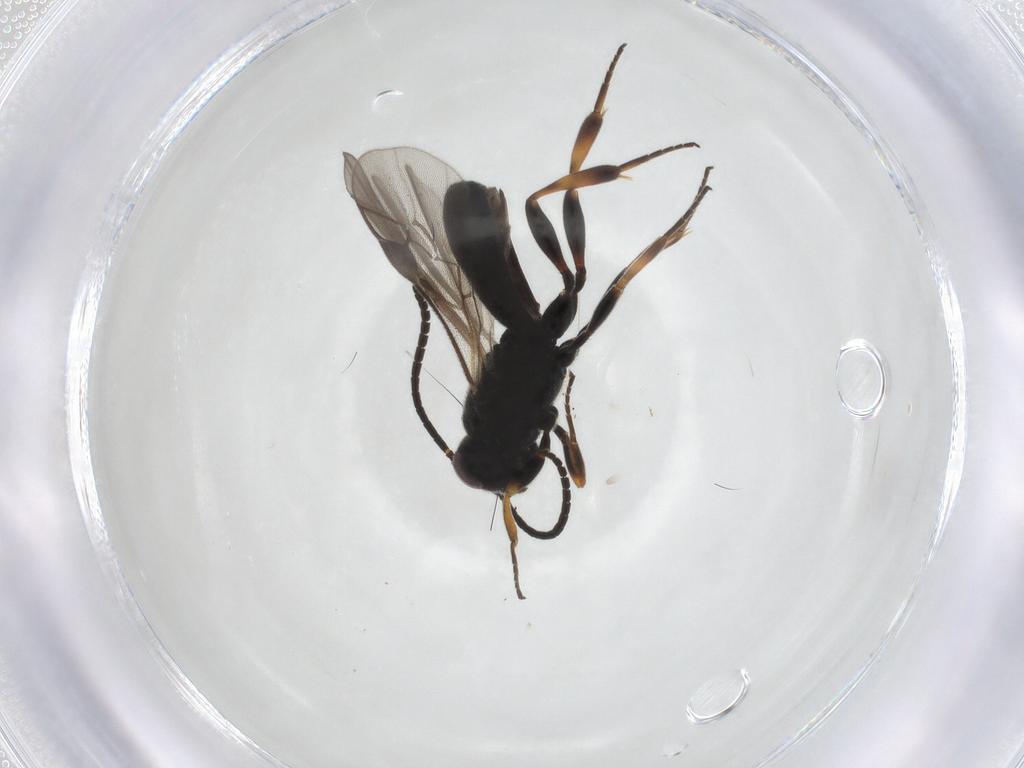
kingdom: Animalia
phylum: Arthropoda
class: Insecta
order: Hymenoptera
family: Braconidae
